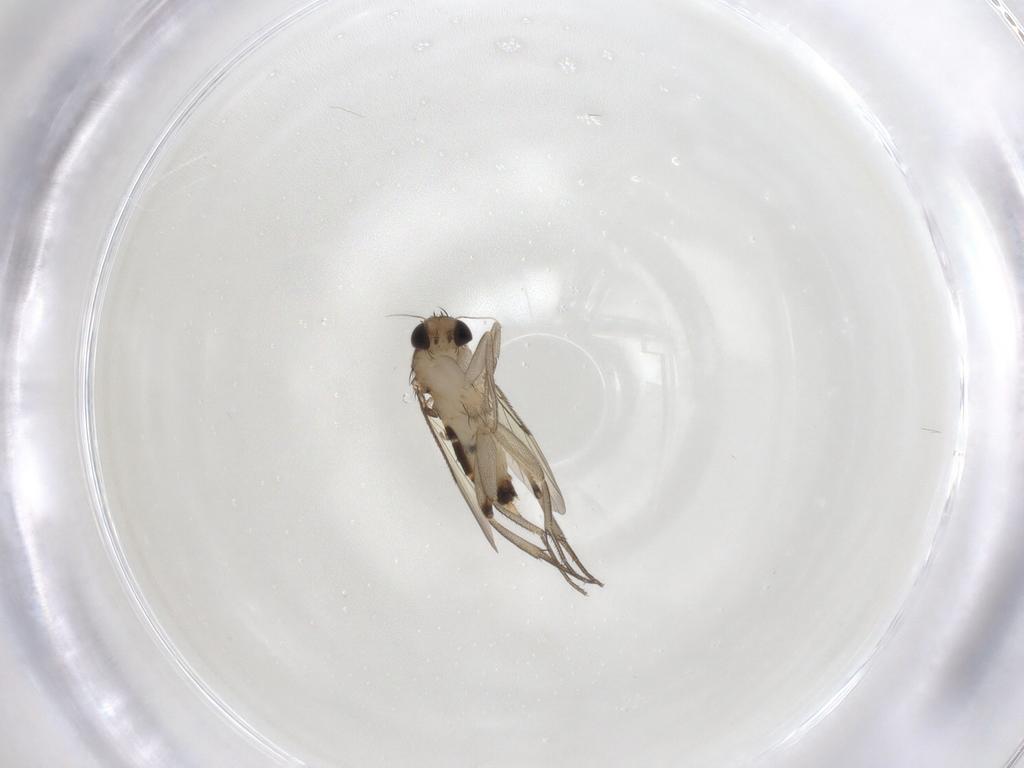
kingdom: Animalia
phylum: Arthropoda
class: Insecta
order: Diptera
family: Phoridae
